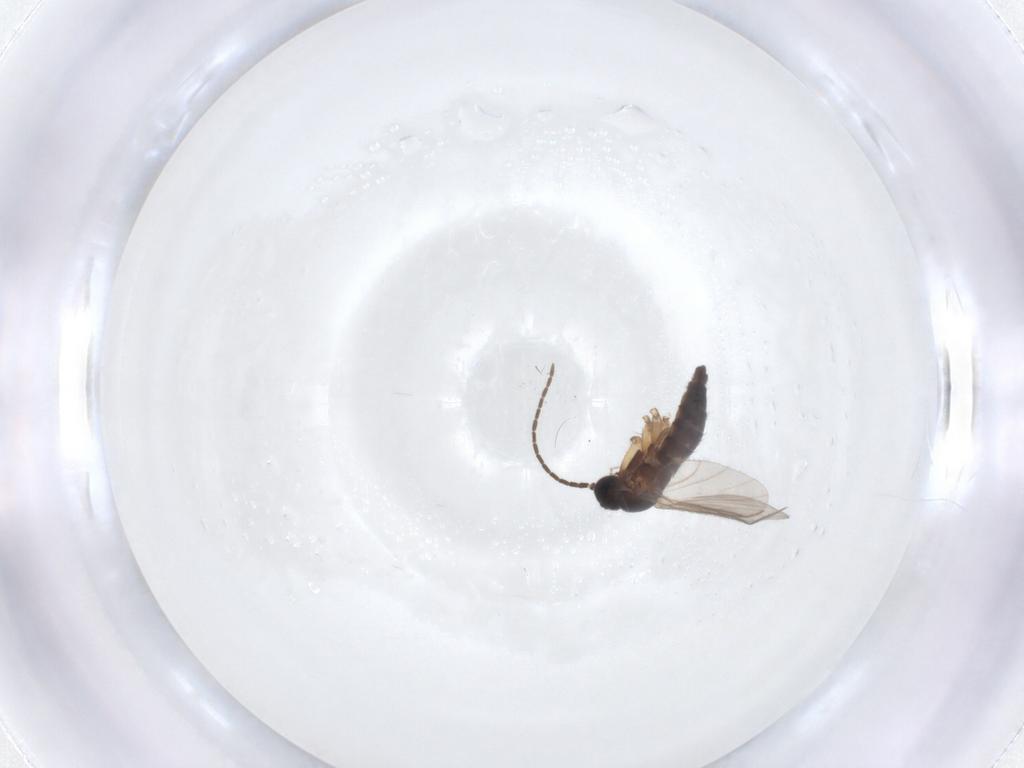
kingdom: Animalia
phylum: Arthropoda
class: Insecta
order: Diptera
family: Sciaridae
